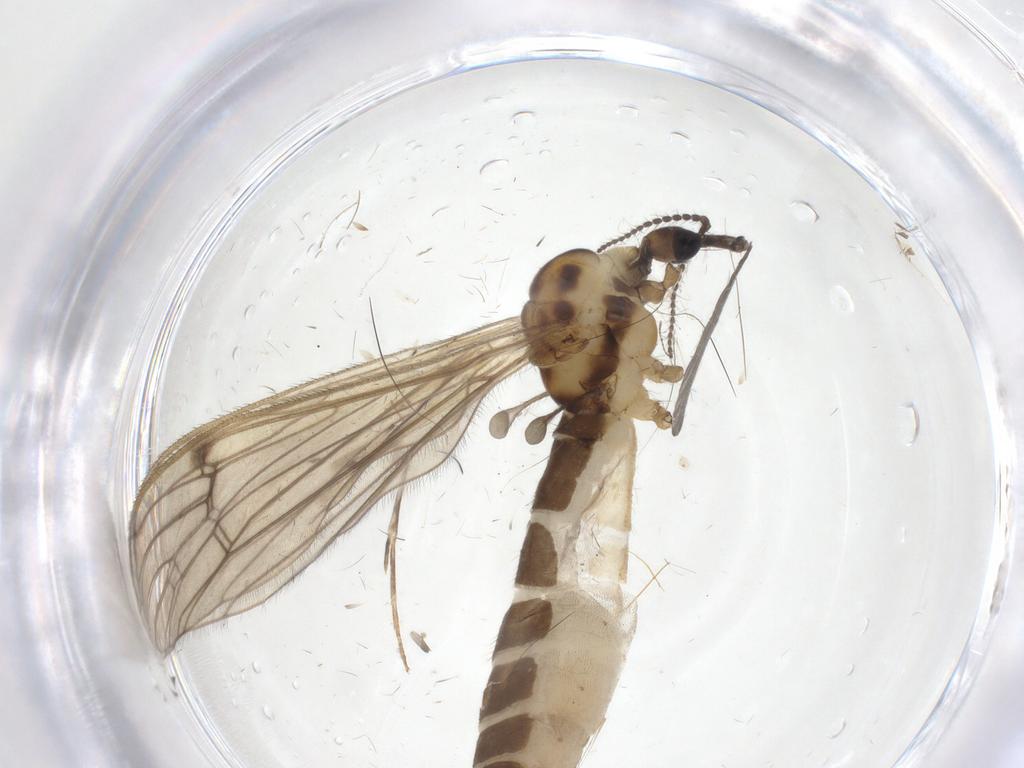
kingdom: Animalia
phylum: Arthropoda
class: Insecta
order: Diptera
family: Limoniidae
